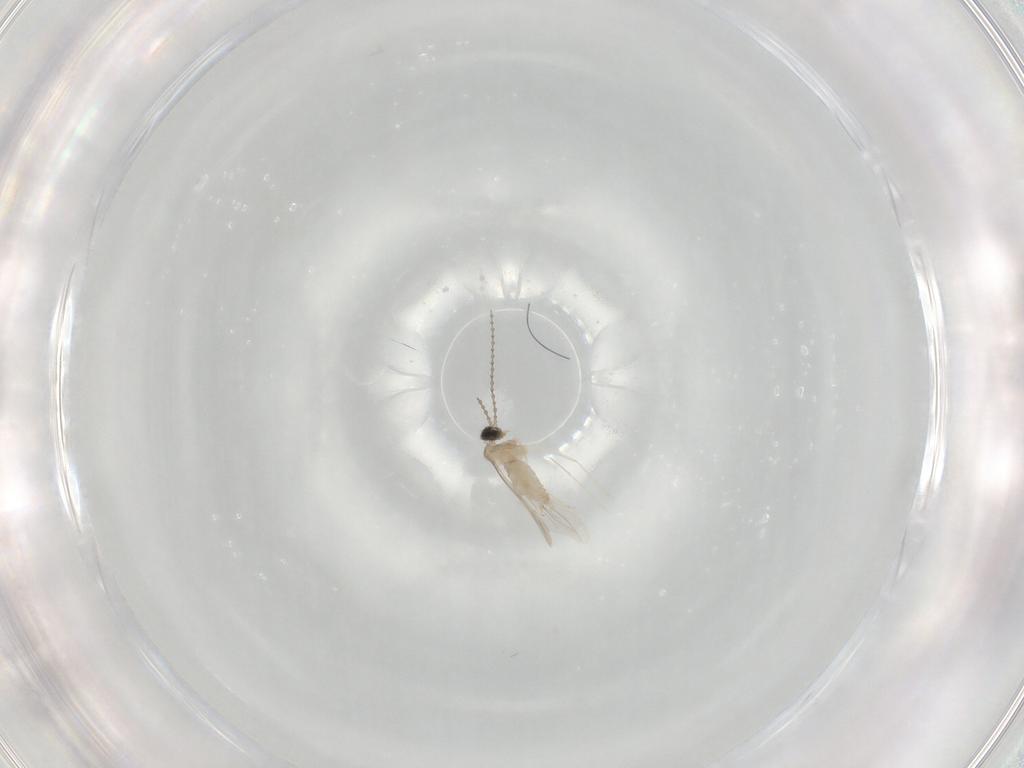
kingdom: Animalia
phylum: Arthropoda
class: Insecta
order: Diptera
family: Cecidomyiidae
